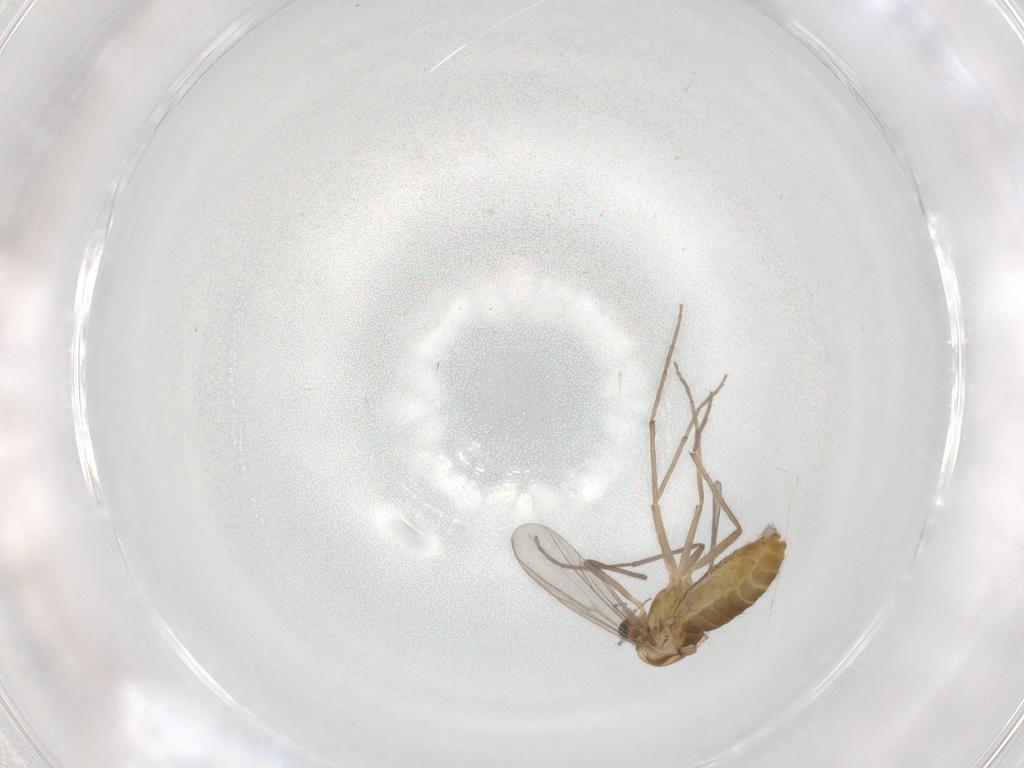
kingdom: Animalia
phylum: Arthropoda
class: Insecta
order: Diptera
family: Chironomidae
